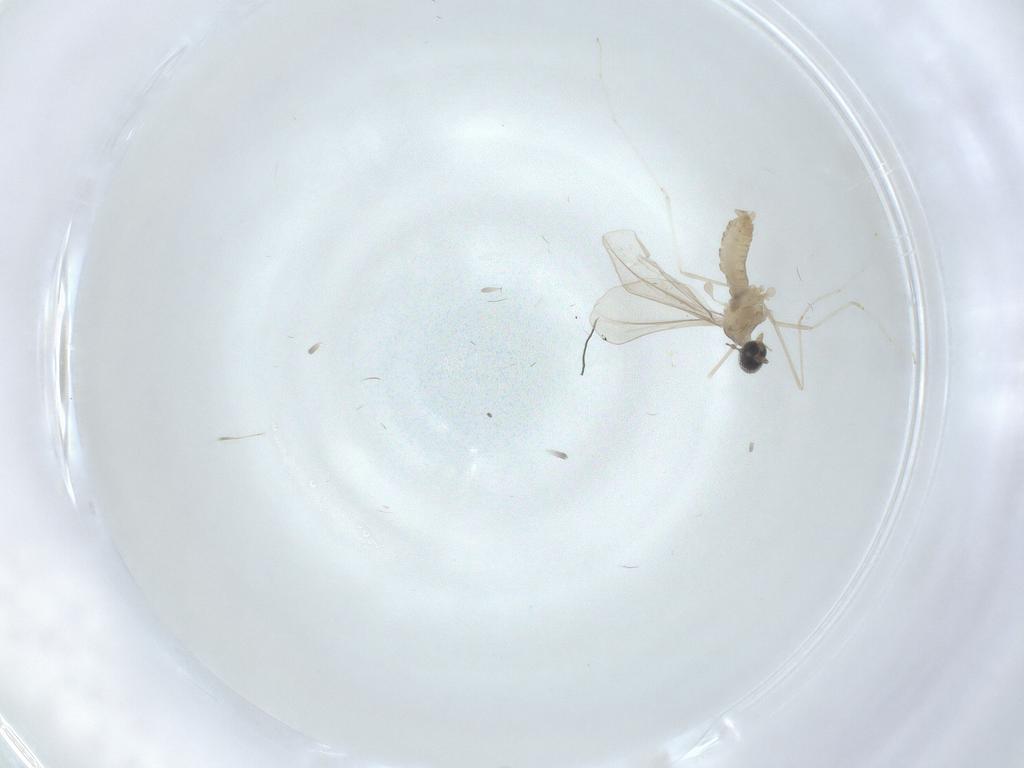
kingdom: Animalia
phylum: Arthropoda
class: Insecta
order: Diptera
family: Cecidomyiidae
